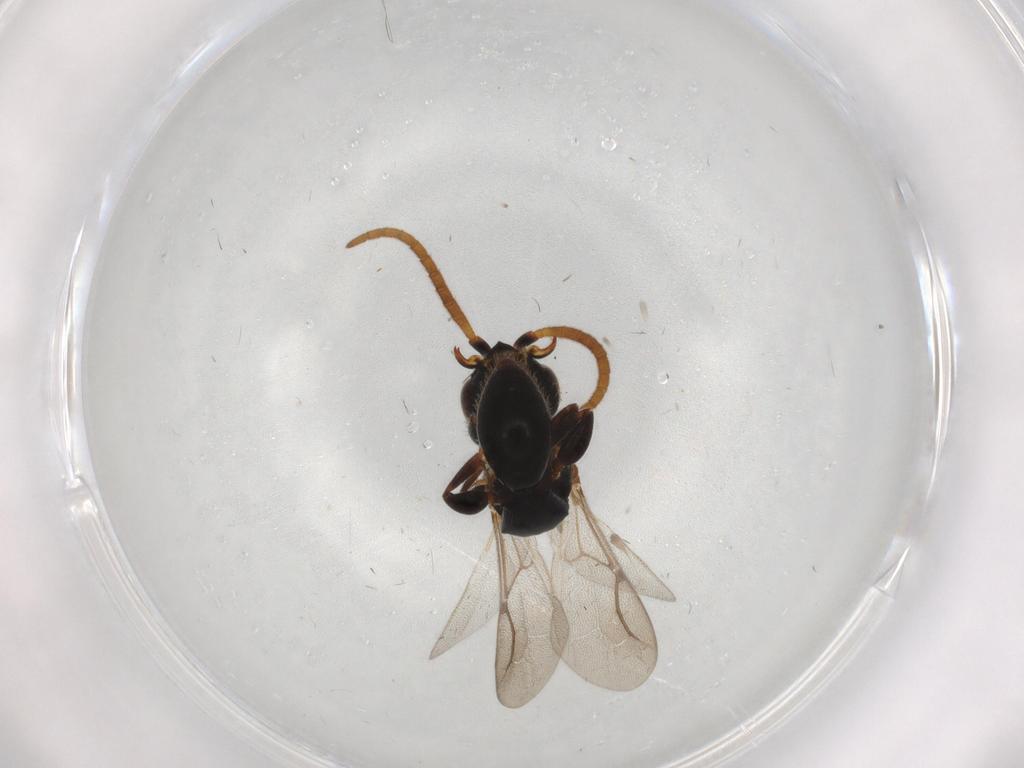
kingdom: Animalia
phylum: Arthropoda
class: Insecta
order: Hymenoptera
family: Bethylidae
